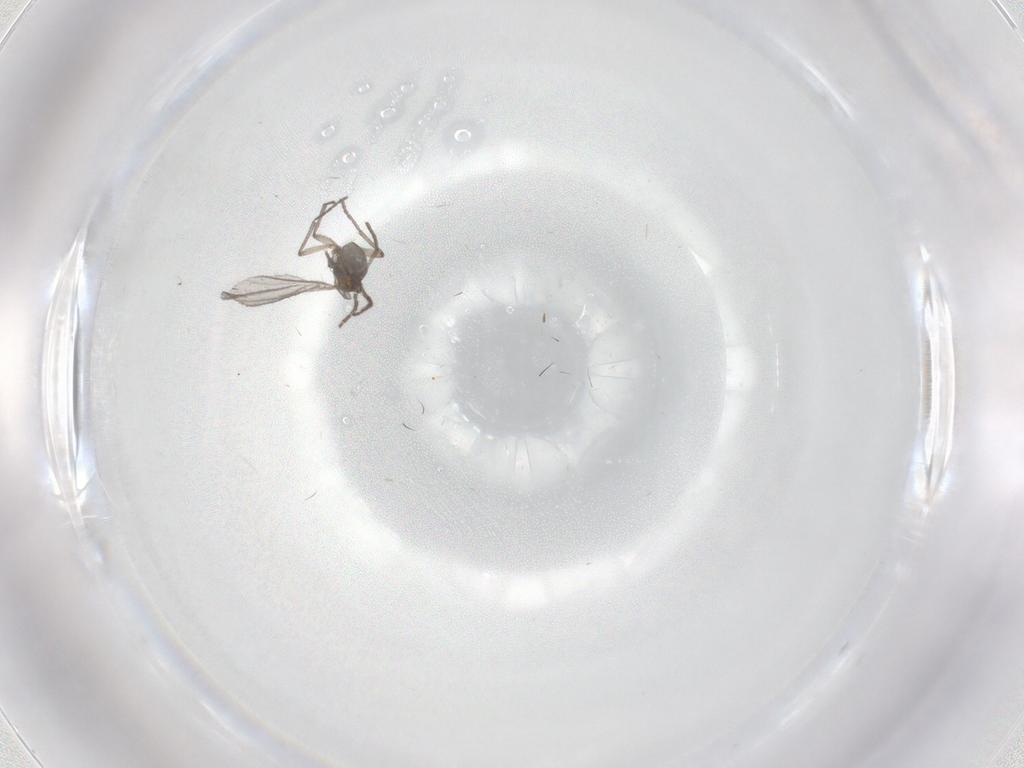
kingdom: Animalia
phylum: Arthropoda
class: Insecta
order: Diptera
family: Sciaridae
